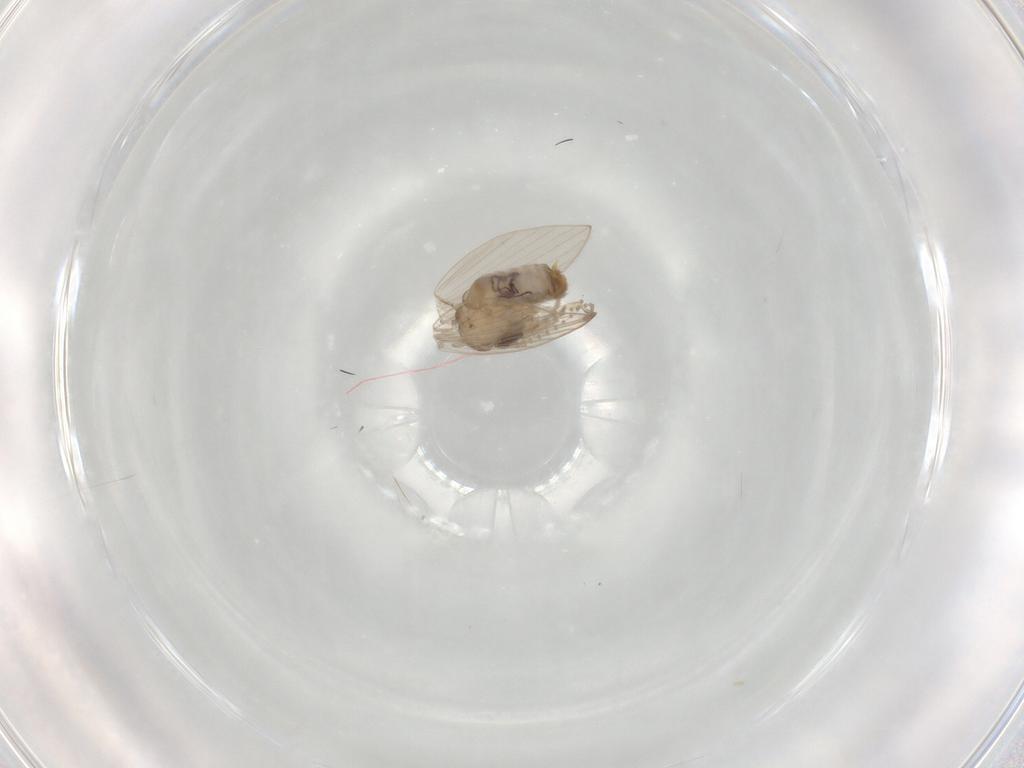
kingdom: Animalia
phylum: Arthropoda
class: Insecta
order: Diptera
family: Psychodidae
